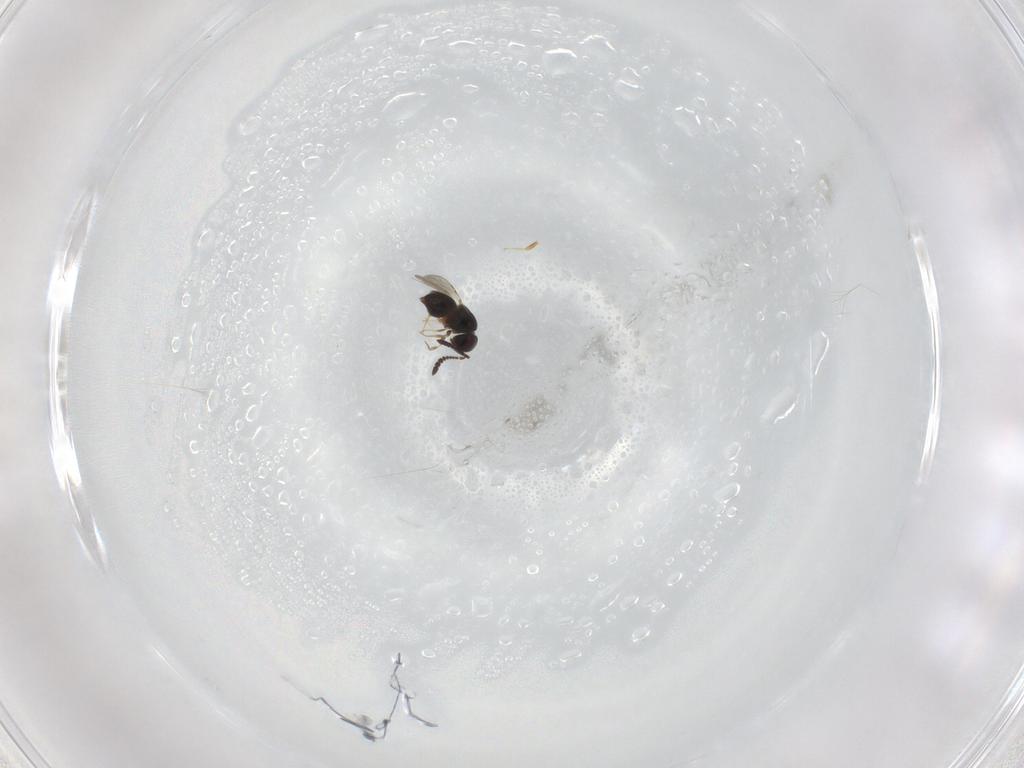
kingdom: Animalia
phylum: Arthropoda
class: Insecta
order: Hymenoptera
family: Ceraphronidae
